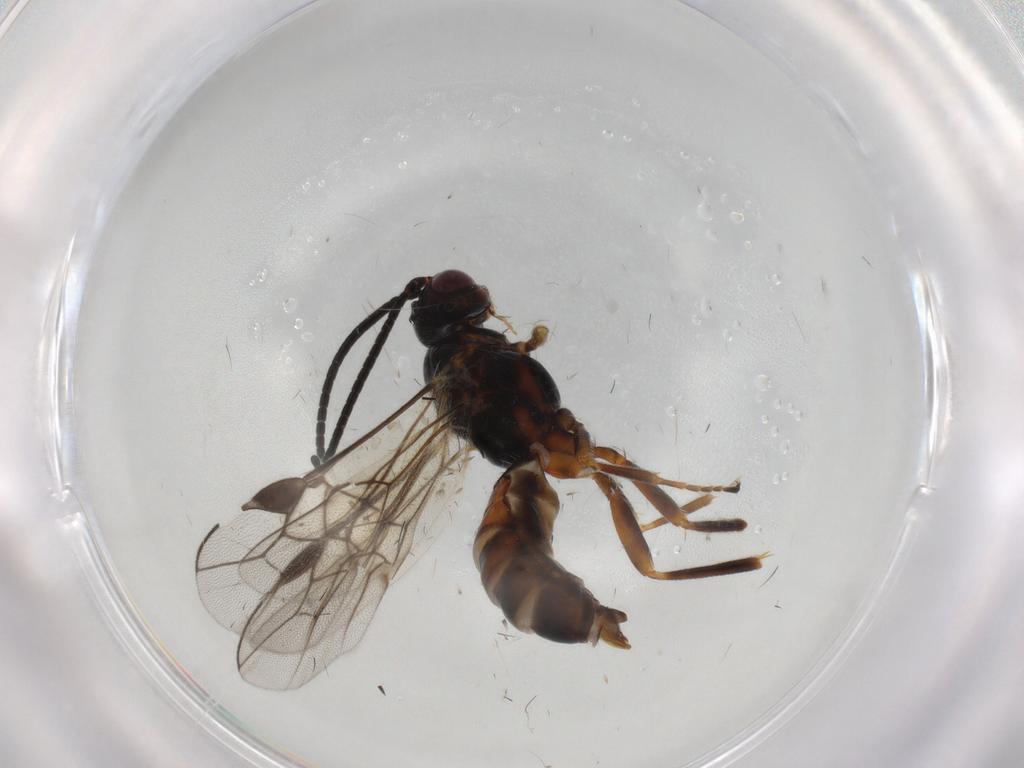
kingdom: Animalia
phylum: Arthropoda
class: Insecta
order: Hymenoptera
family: Braconidae
